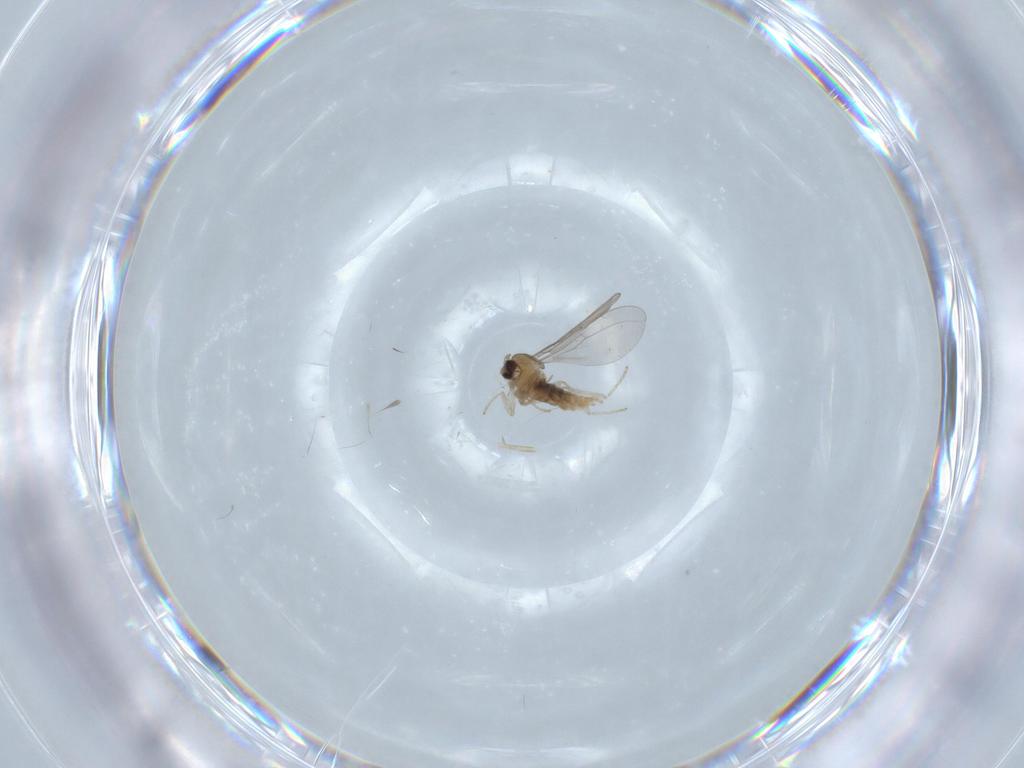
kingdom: Animalia
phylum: Arthropoda
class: Insecta
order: Diptera
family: Cecidomyiidae
